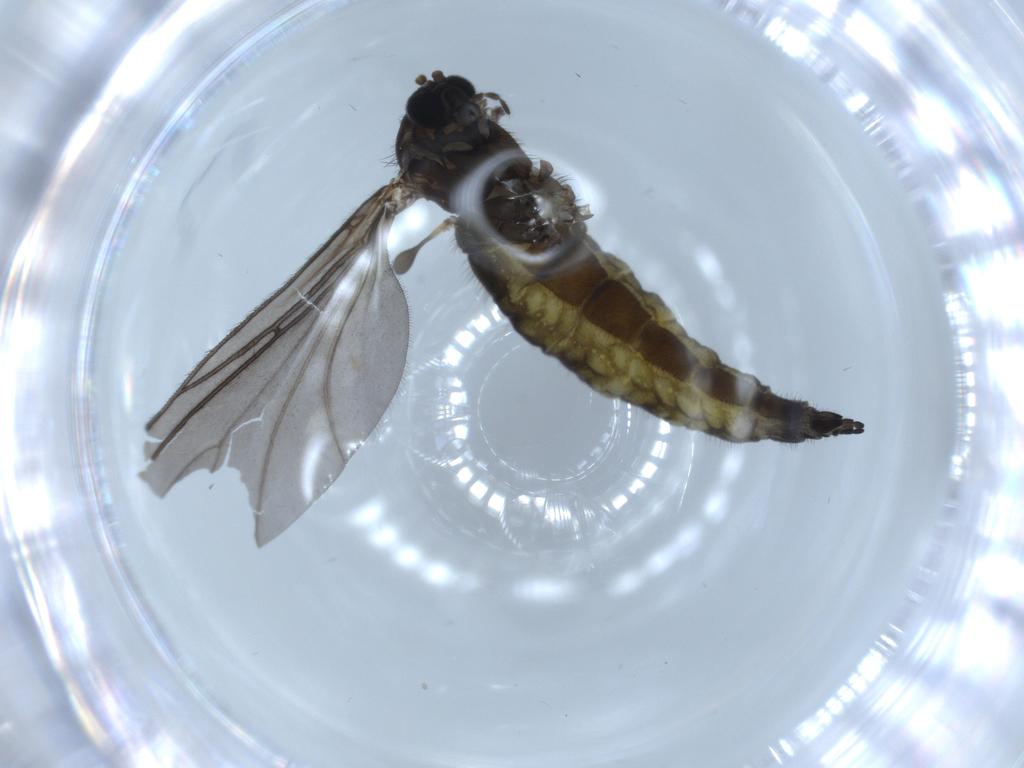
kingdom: Animalia
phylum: Arthropoda
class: Insecta
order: Diptera
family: Sciaridae
